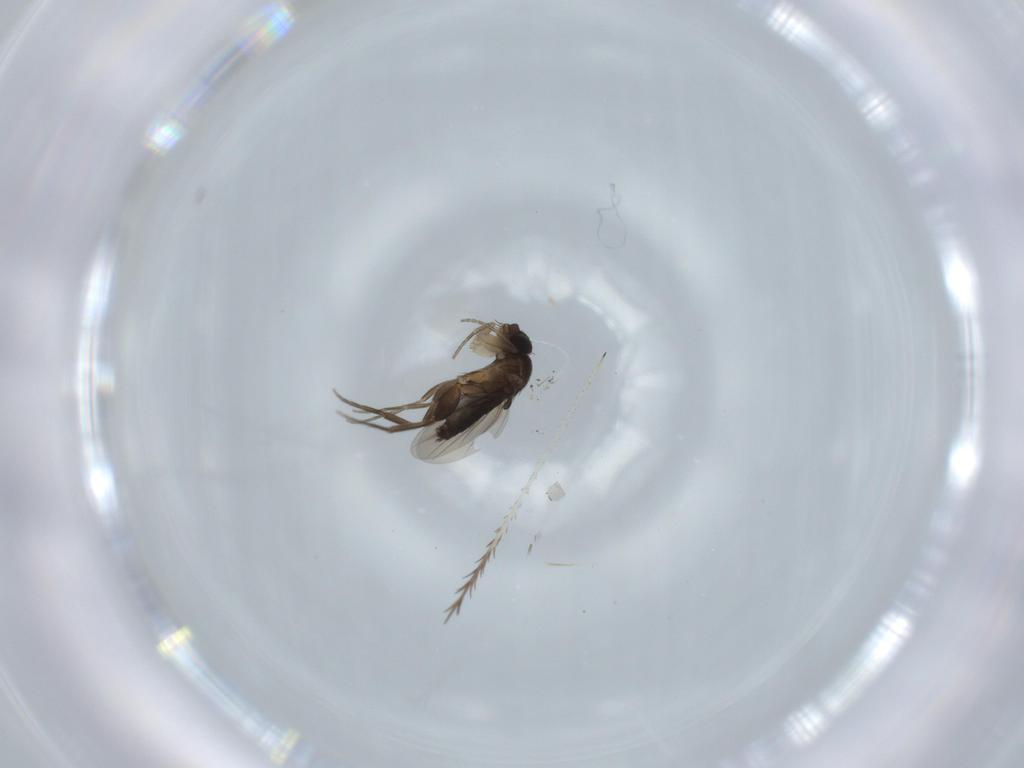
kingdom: Animalia
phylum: Arthropoda
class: Insecta
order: Diptera
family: Phoridae
